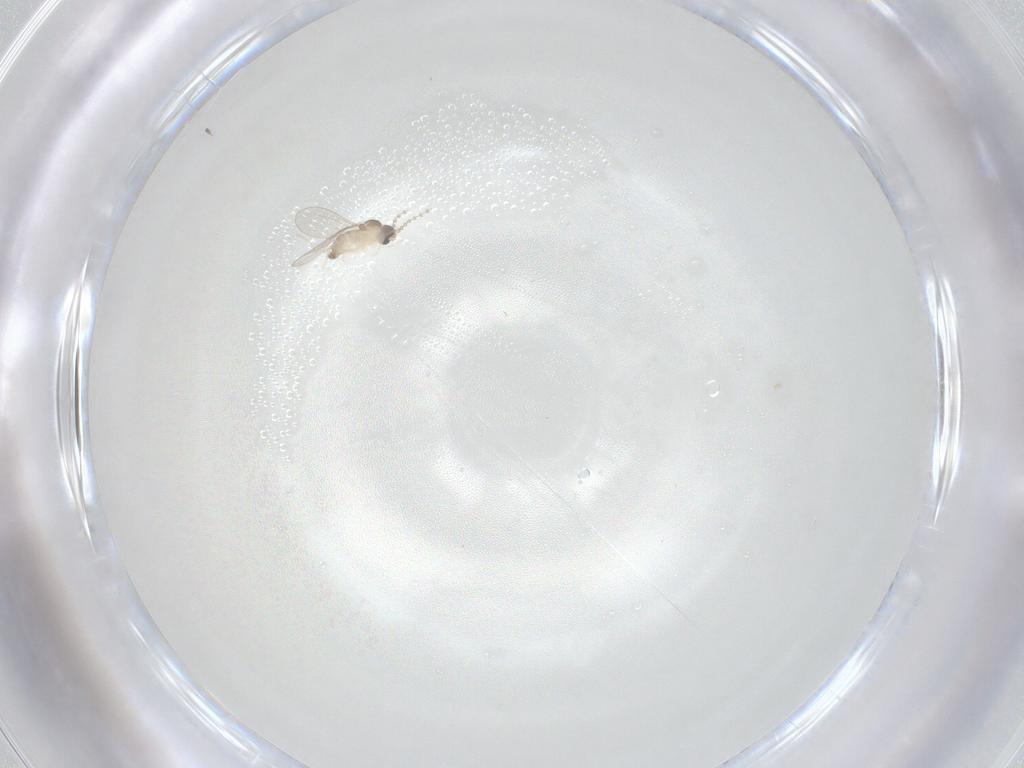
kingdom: Animalia
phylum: Arthropoda
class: Insecta
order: Diptera
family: Cecidomyiidae
